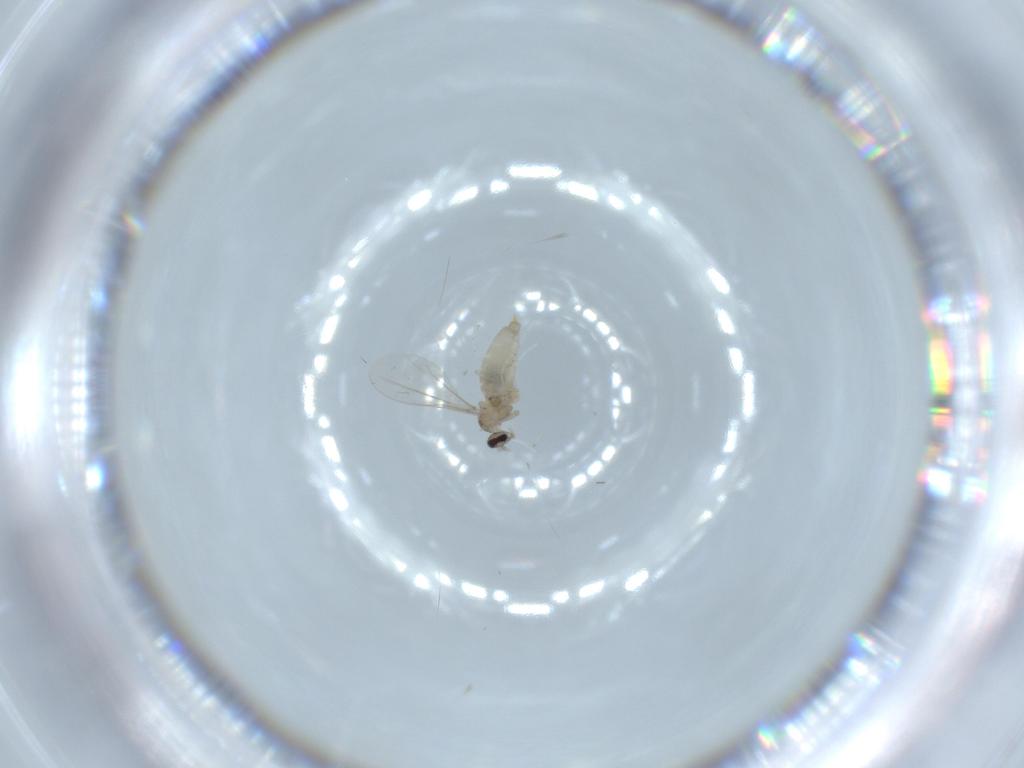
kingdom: Animalia
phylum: Arthropoda
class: Insecta
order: Diptera
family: Cecidomyiidae
